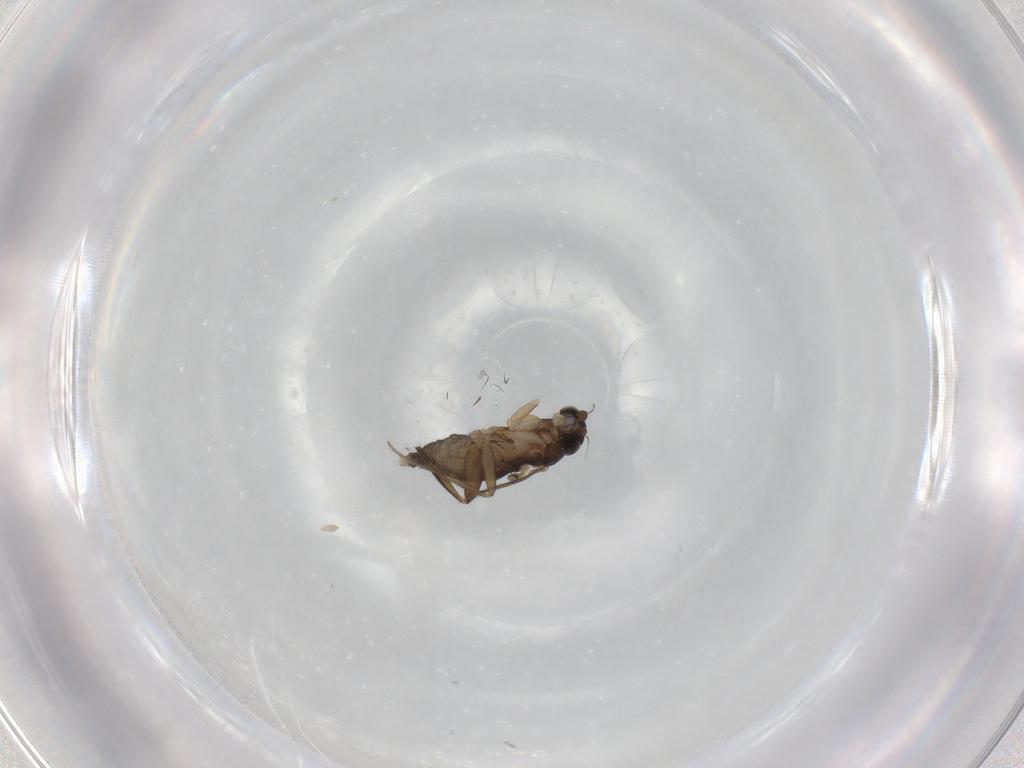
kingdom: Animalia
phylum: Arthropoda
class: Insecta
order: Diptera
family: Phoridae
